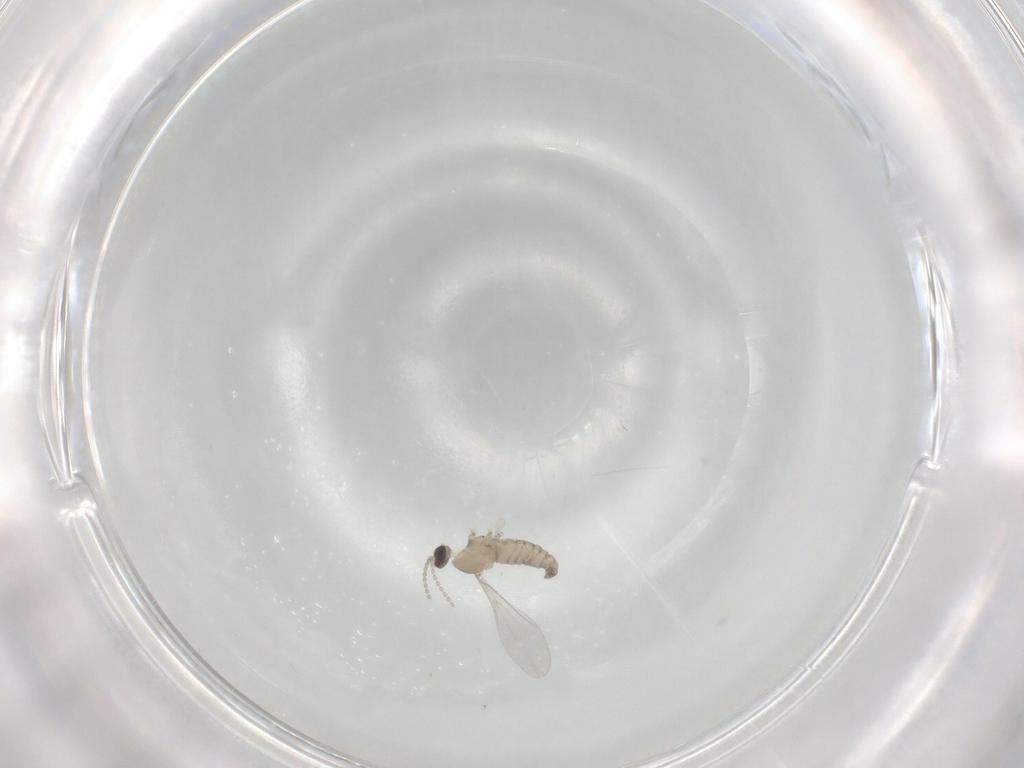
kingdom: Animalia
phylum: Arthropoda
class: Insecta
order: Diptera
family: Cecidomyiidae
